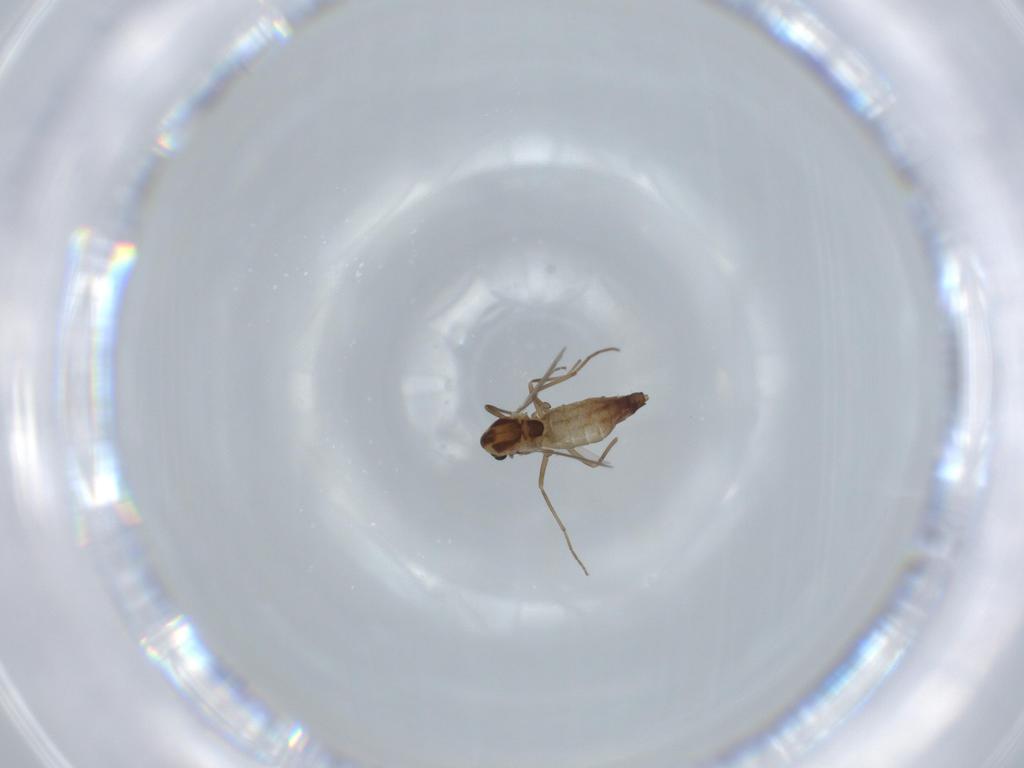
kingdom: Animalia
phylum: Arthropoda
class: Insecta
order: Diptera
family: Chironomidae
